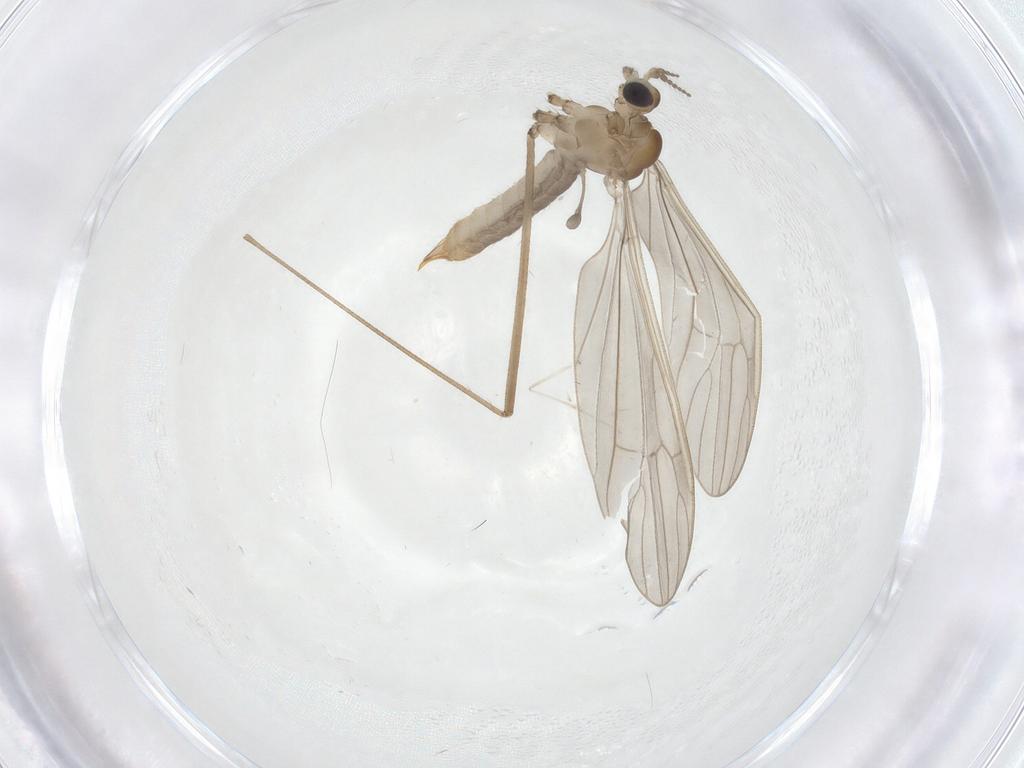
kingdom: Animalia
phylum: Arthropoda
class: Insecta
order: Diptera
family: Limoniidae
